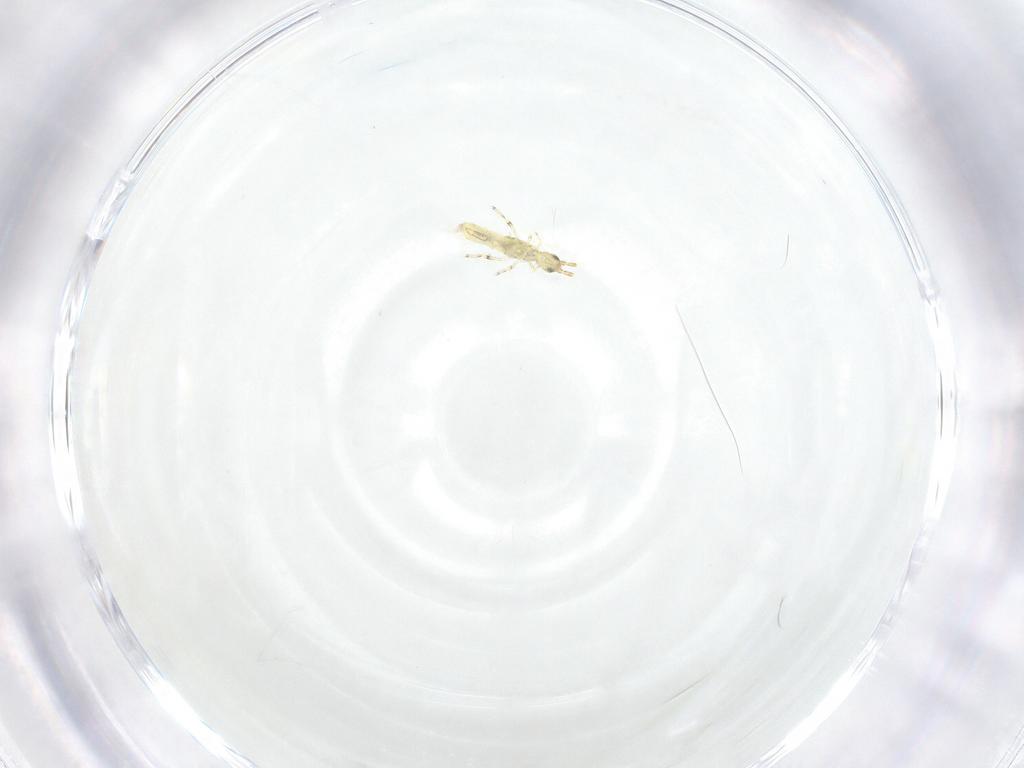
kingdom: Animalia
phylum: Arthropoda
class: Collembola
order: Entomobryomorpha
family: Entomobryidae
